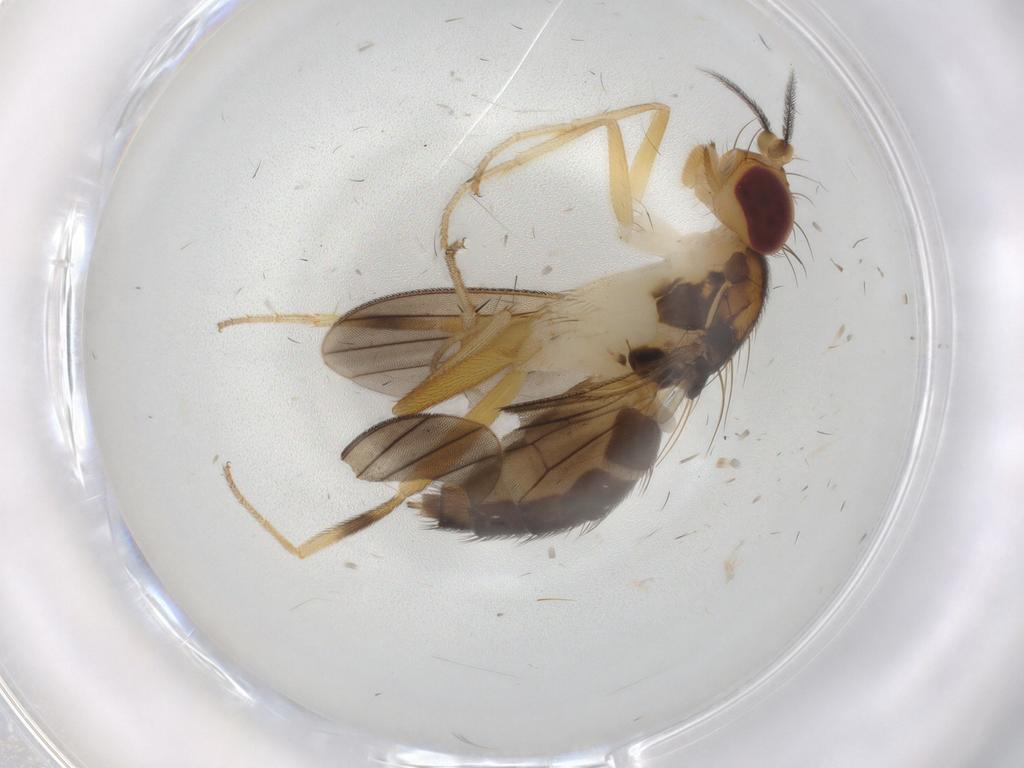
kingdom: Animalia
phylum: Arthropoda
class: Insecta
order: Diptera
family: Clusiidae
